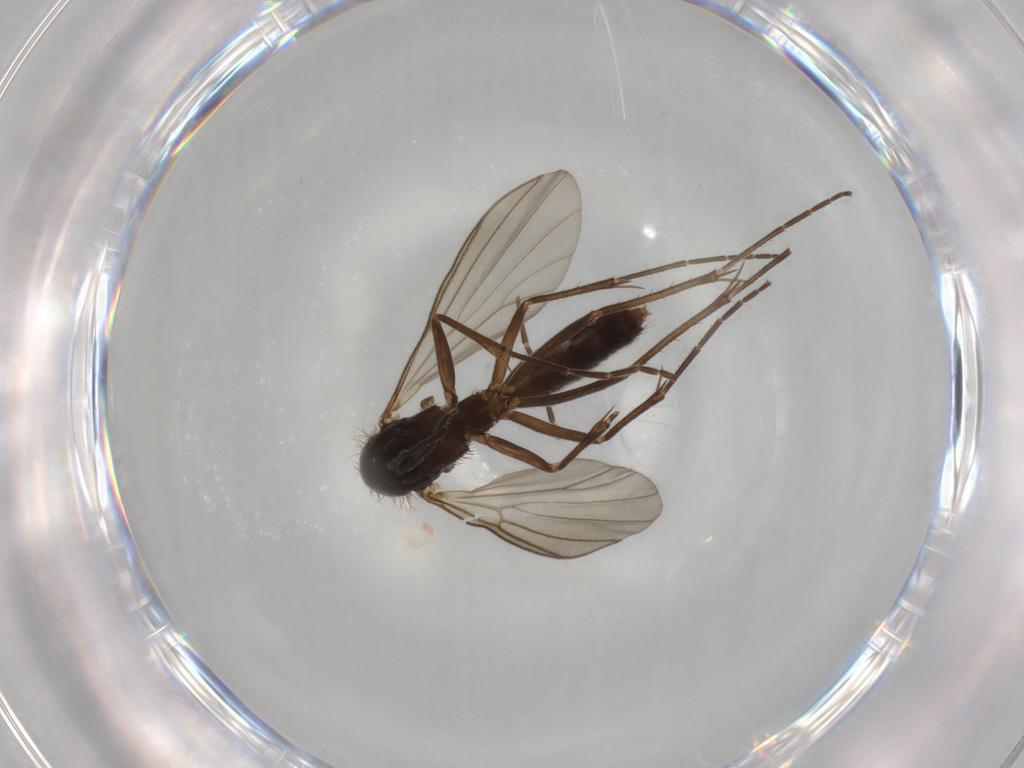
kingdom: Animalia
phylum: Arthropoda
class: Insecta
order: Diptera
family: Mycetophilidae
